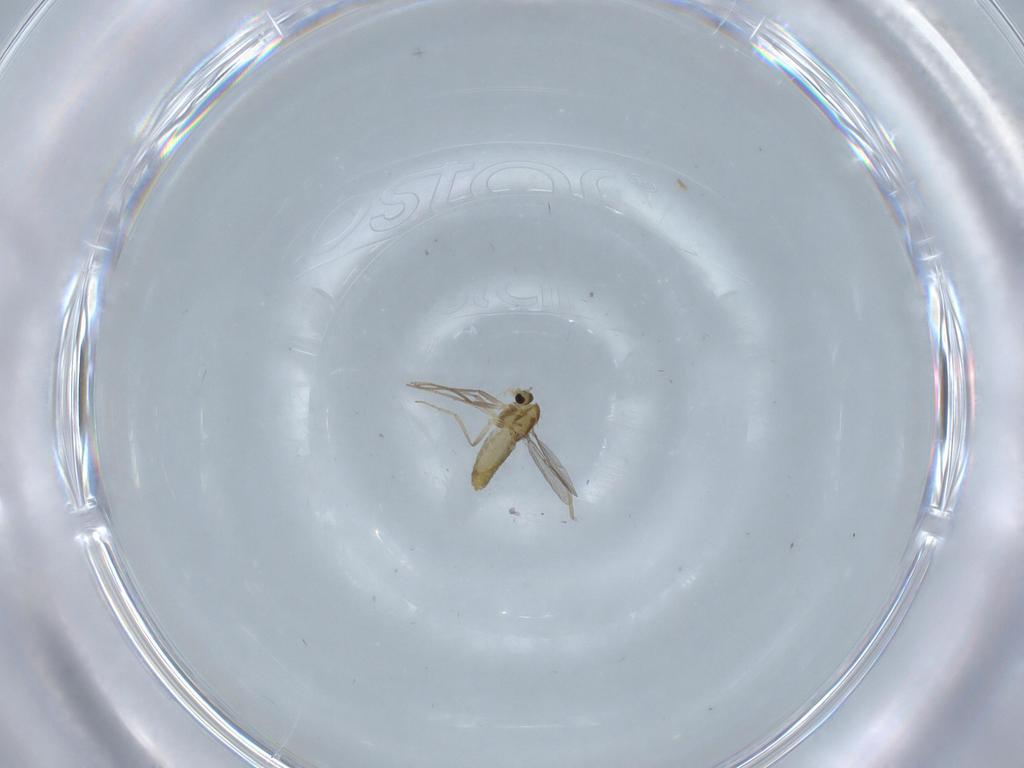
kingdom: Animalia
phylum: Arthropoda
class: Insecta
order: Diptera
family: Chironomidae
